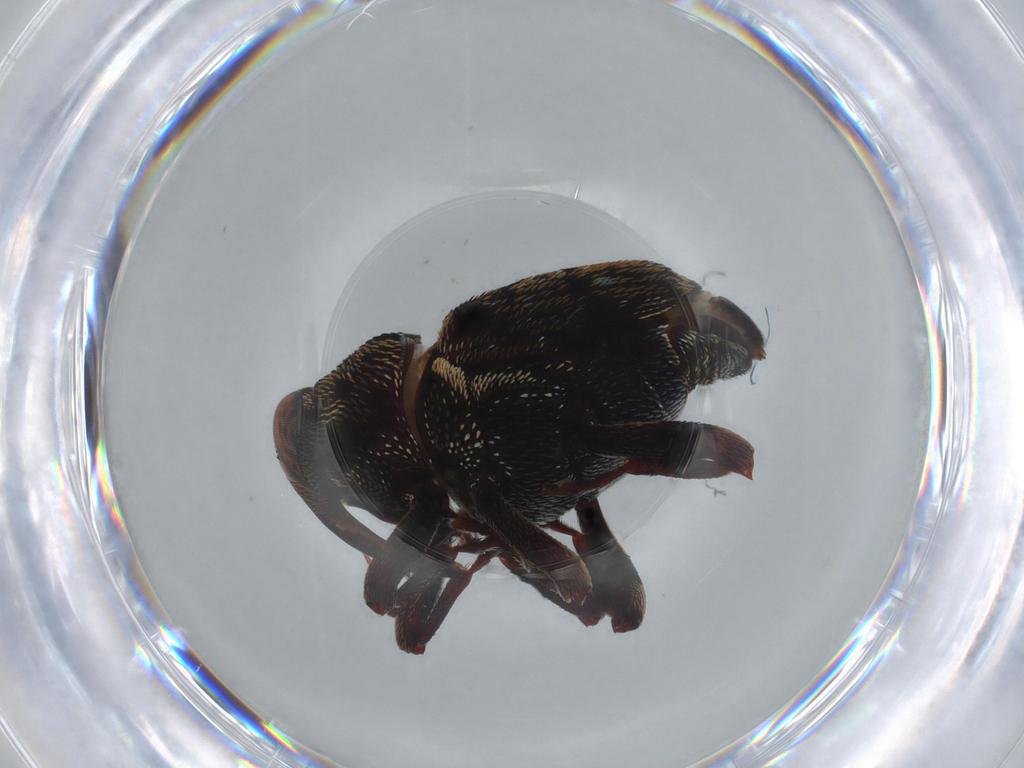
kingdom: Animalia
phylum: Arthropoda
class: Insecta
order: Coleoptera
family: Curculionidae
